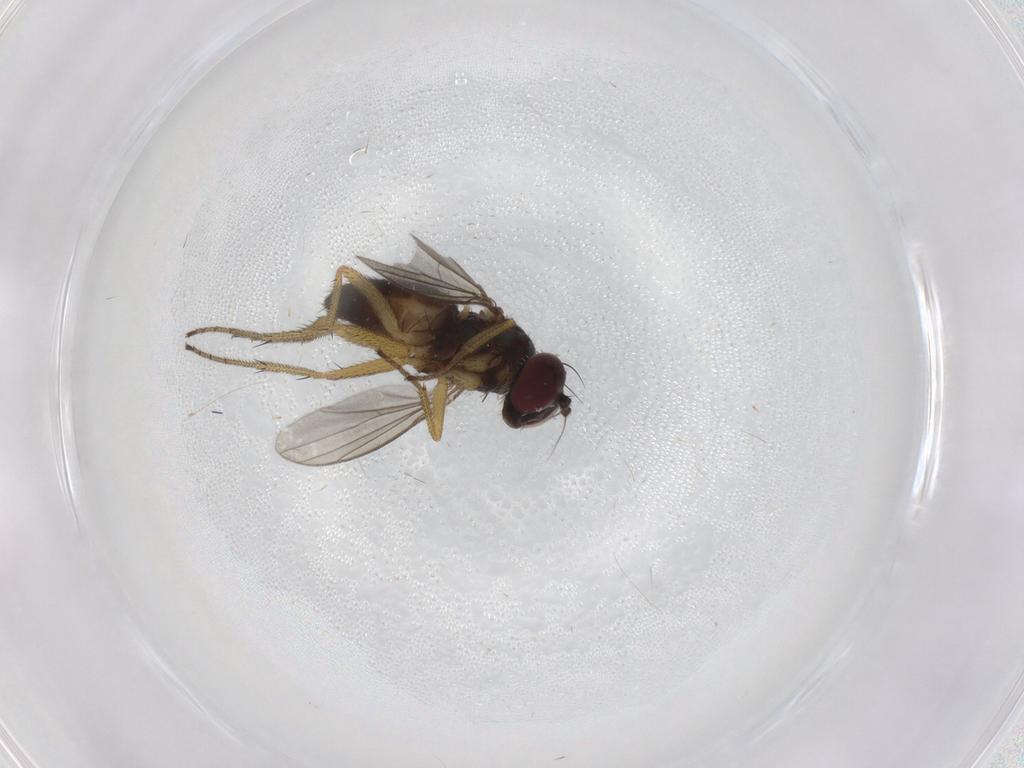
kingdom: Animalia
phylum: Arthropoda
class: Insecta
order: Diptera
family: Dolichopodidae
